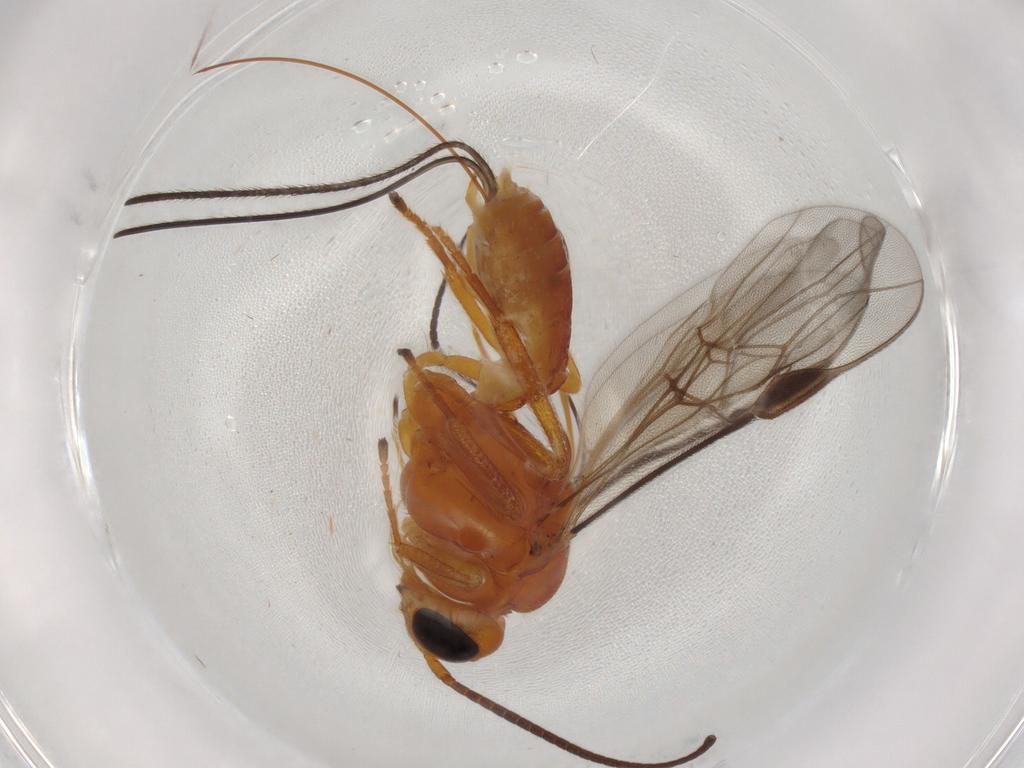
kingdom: Animalia
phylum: Arthropoda
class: Insecta
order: Hymenoptera
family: Braconidae
